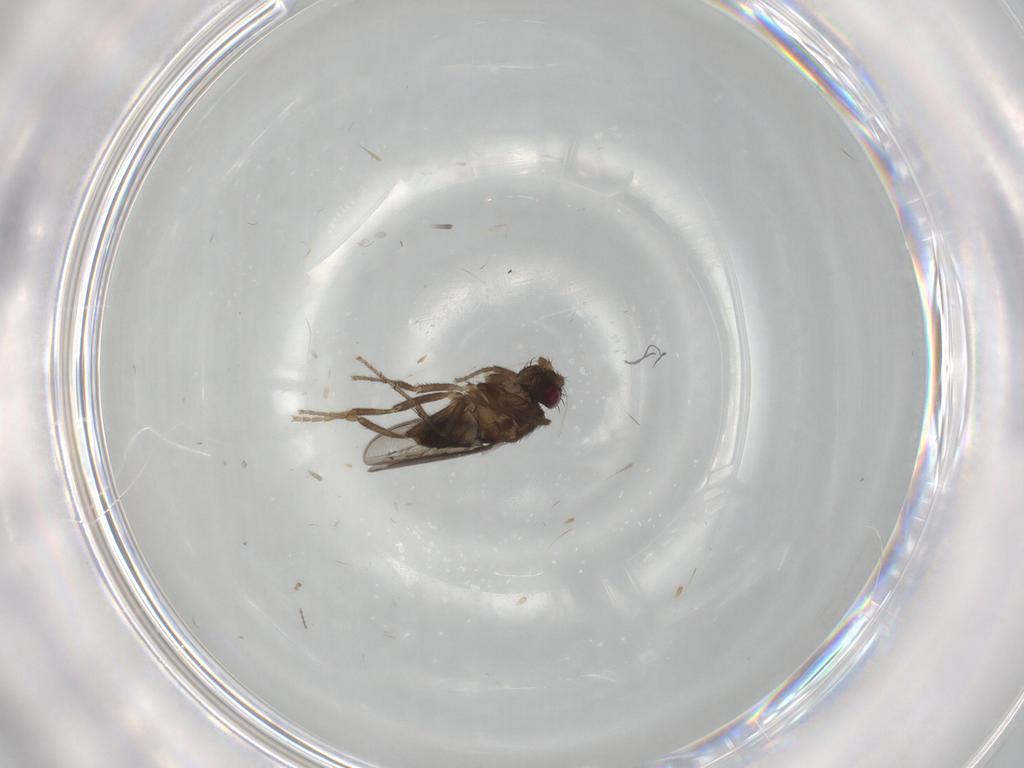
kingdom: Animalia
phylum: Arthropoda
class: Insecta
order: Diptera
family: Sphaeroceridae
